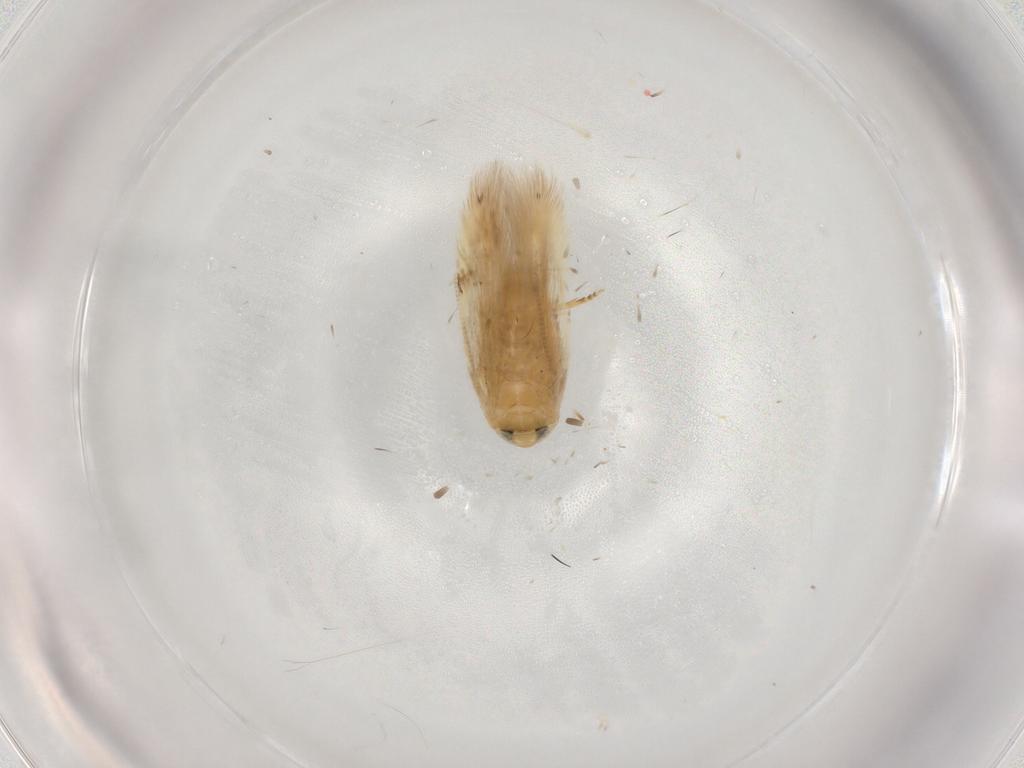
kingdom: Animalia
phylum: Arthropoda
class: Insecta
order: Lepidoptera
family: Opostegidae
